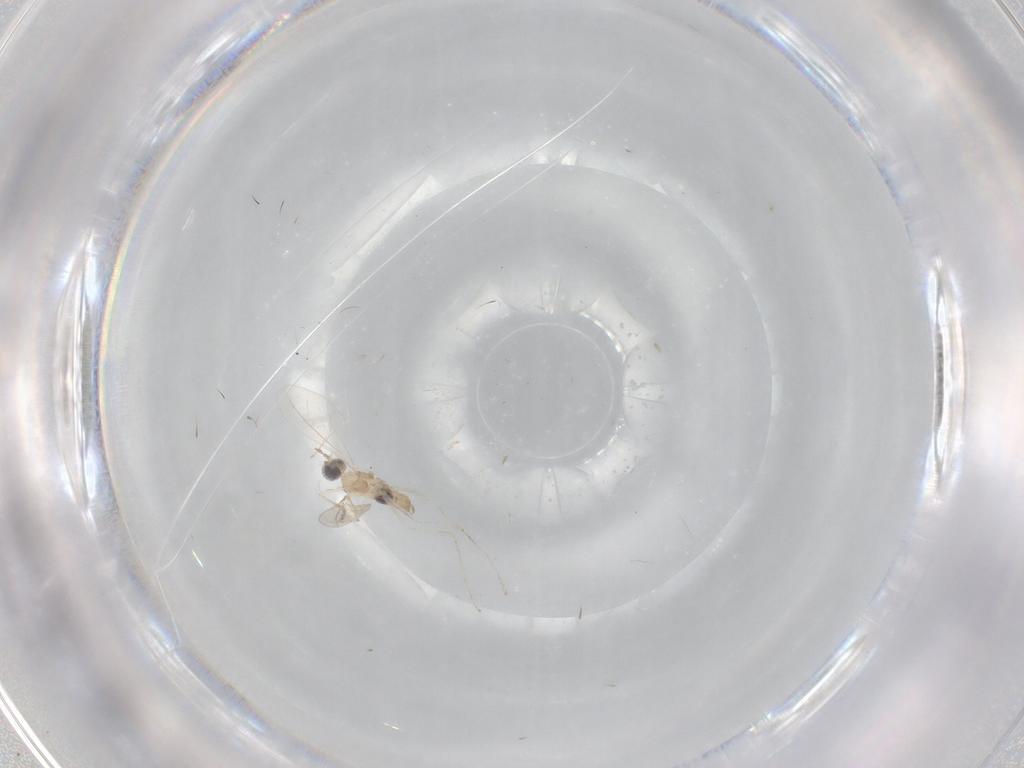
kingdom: Animalia
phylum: Arthropoda
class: Insecta
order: Diptera
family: Cecidomyiidae
